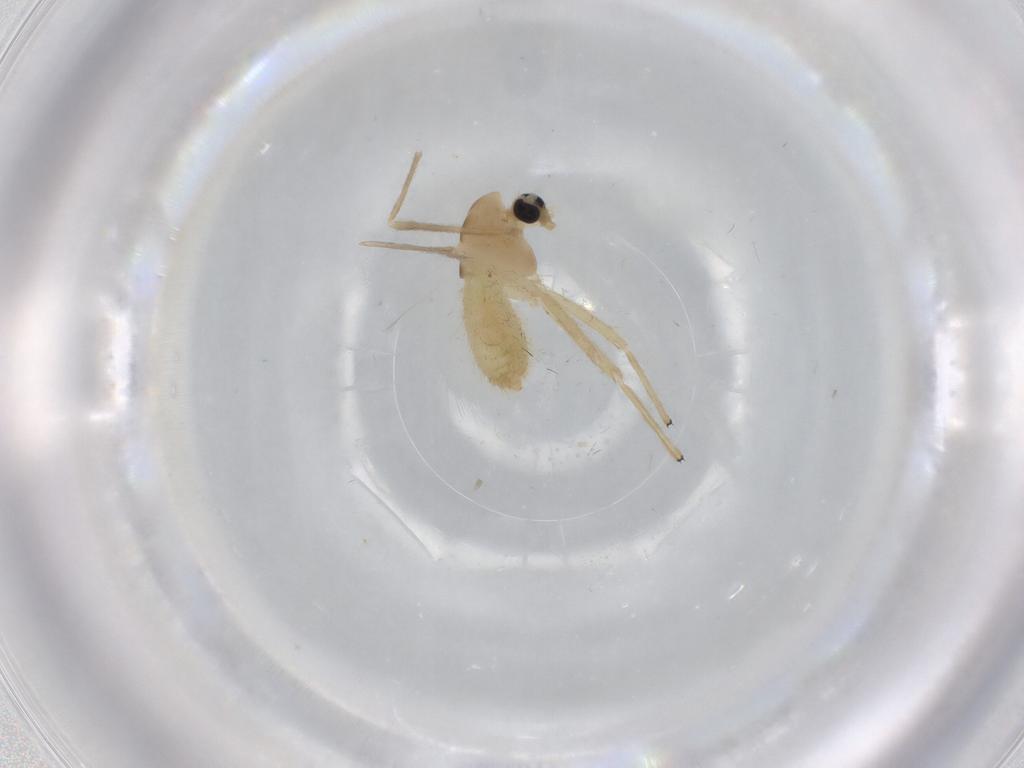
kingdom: Animalia
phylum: Arthropoda
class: Insecta
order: Diptera
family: Chironomidae
